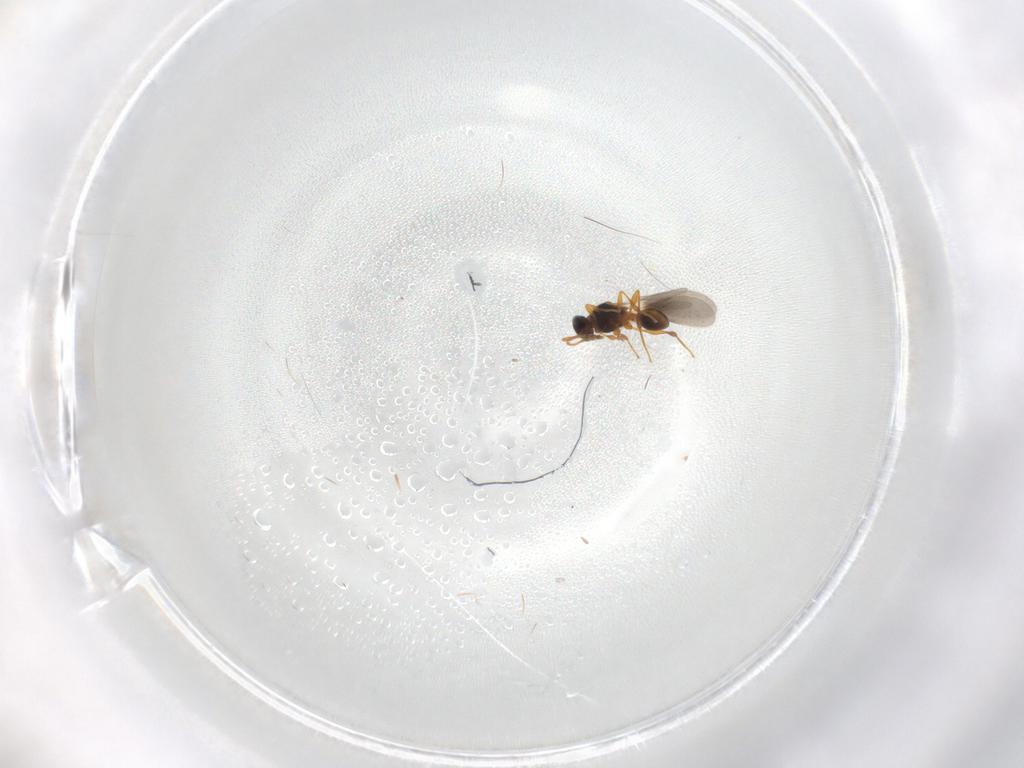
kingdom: Animalia
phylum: Arthropoda
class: Insecta
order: Hymenoptera
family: Platygastridae
